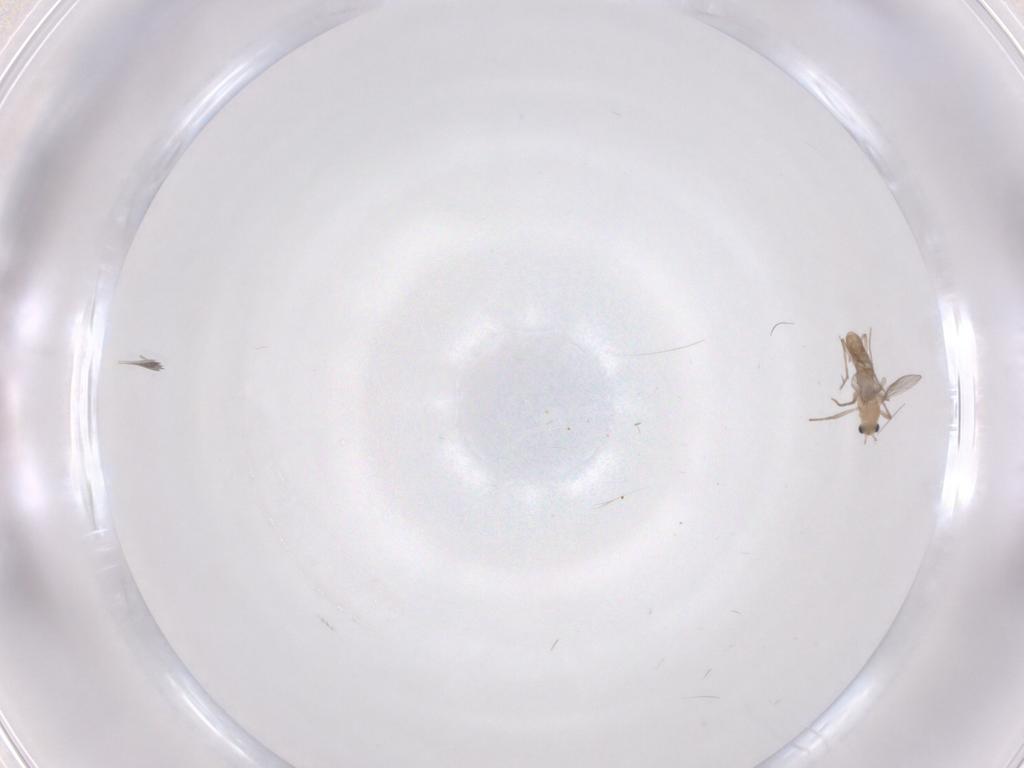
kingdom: Animalia
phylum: Arthropoda
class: Insecta
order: Diptera
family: Chironomidae
